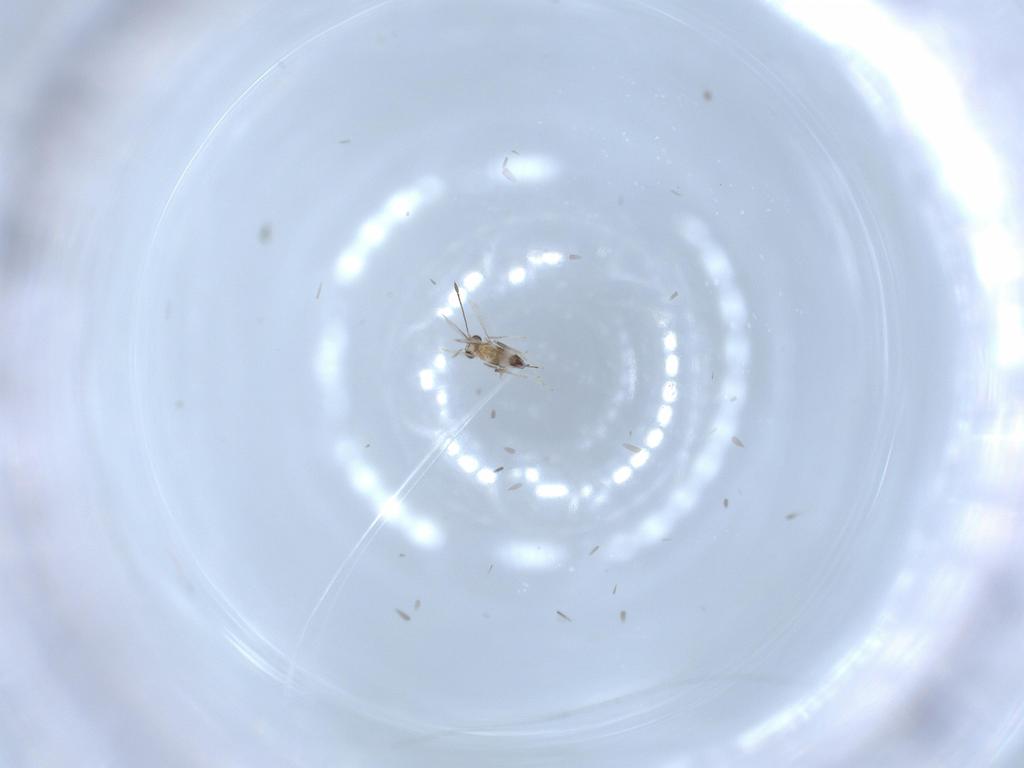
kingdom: Animalia
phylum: Arthropoda
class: Insecta
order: Hymenoptera
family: Mymaridae
